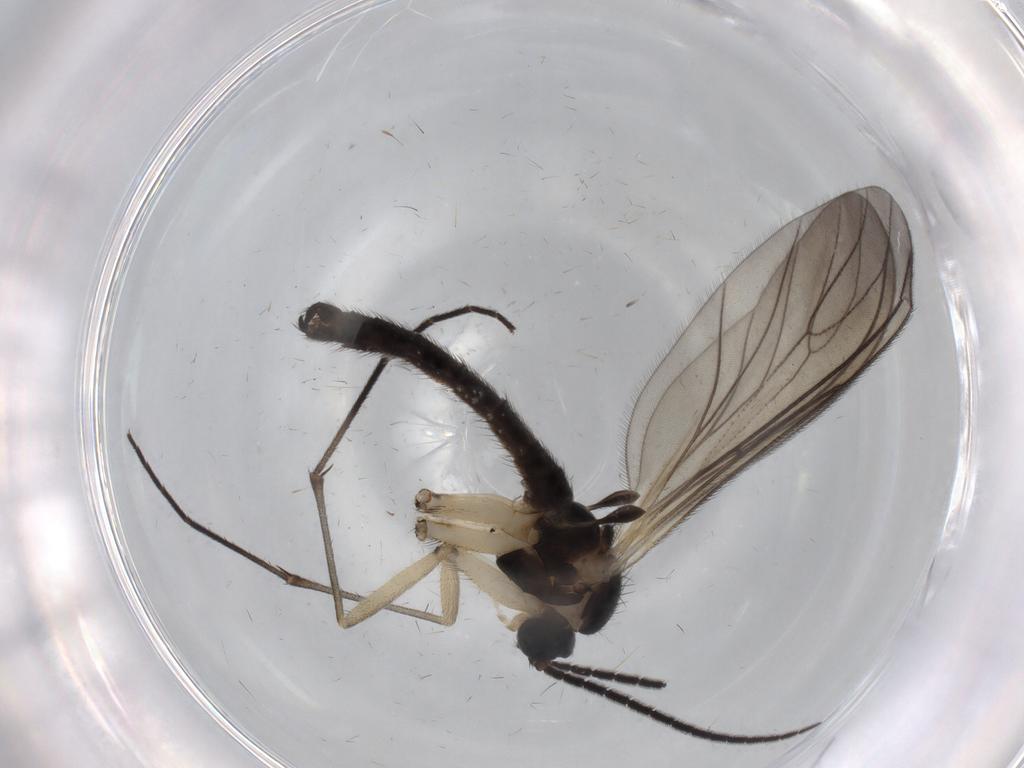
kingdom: Animalia
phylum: Arthropoda
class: Insecta
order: Diptera
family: Sciaridae
